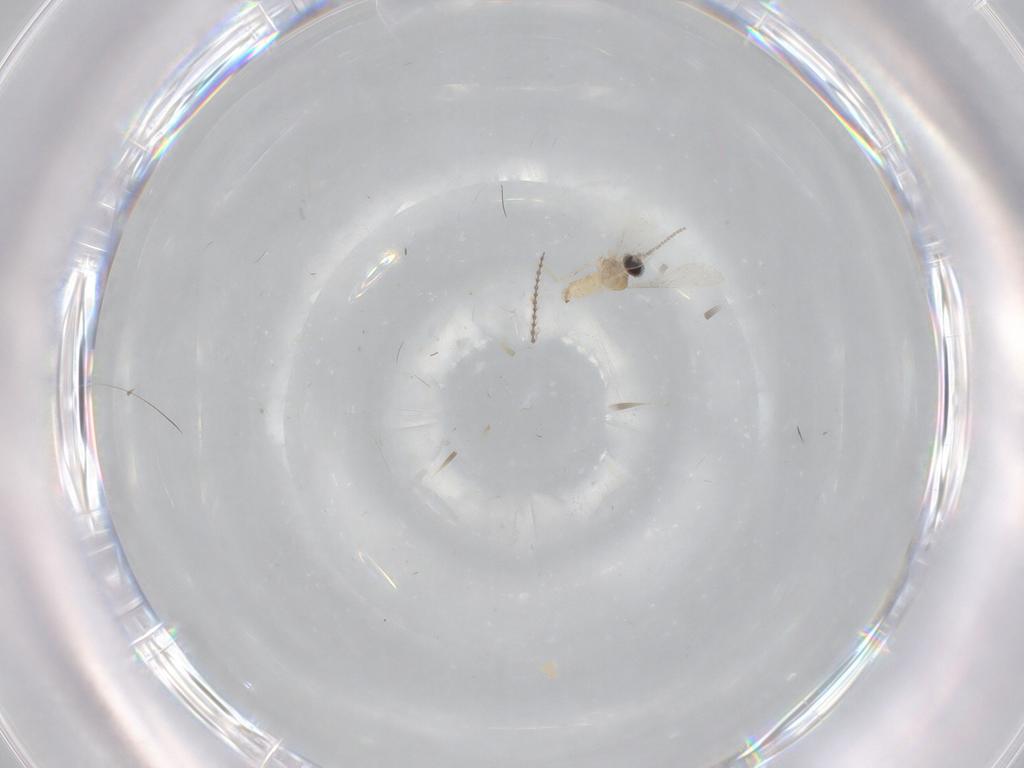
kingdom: Animalia
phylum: Arthropoda
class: Insecta
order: Diptera
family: Cecidomyiidae
